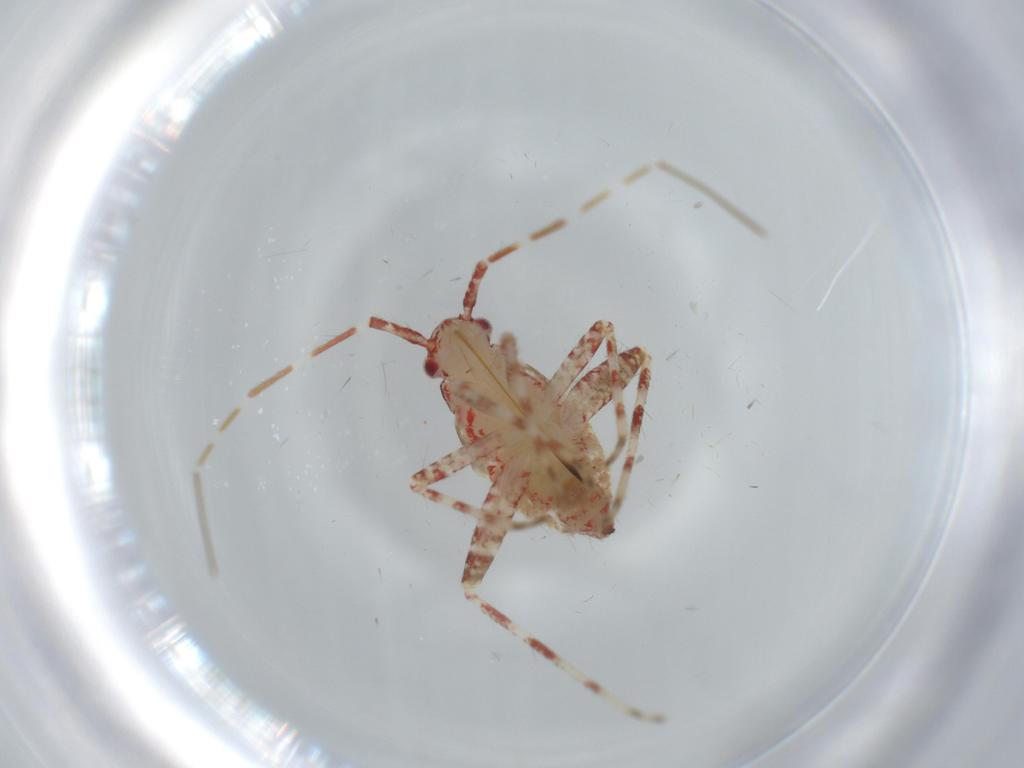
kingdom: Animalia
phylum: Arthropoda
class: Insecta
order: Hemiptera
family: Miridae
